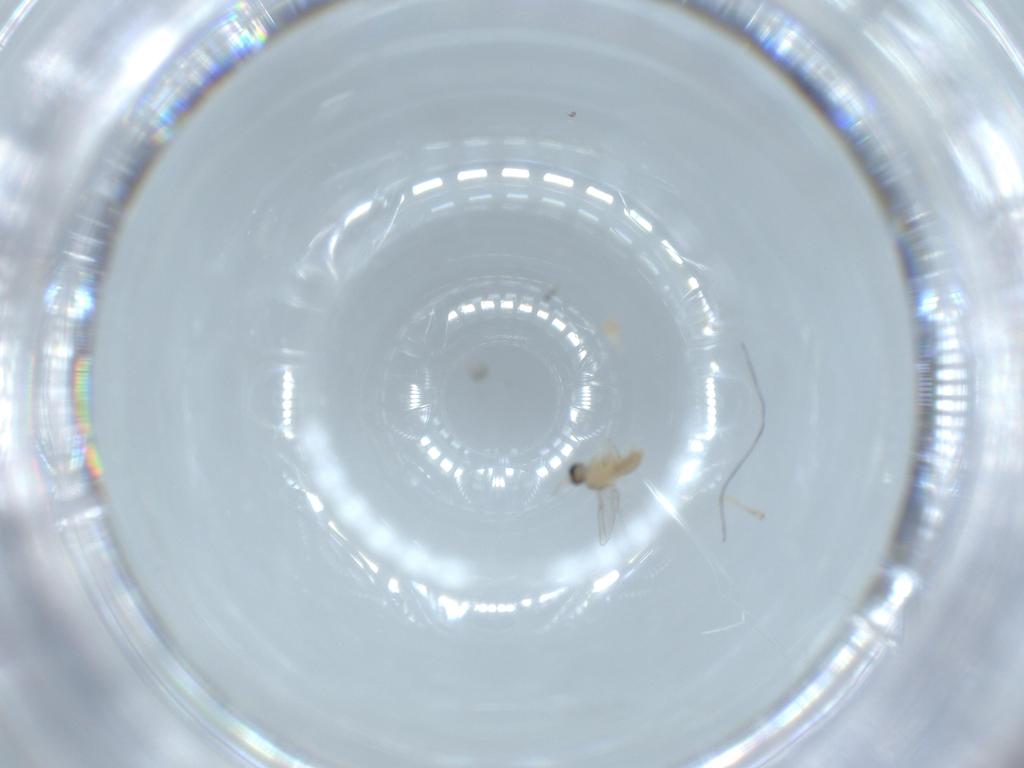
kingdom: Animalia
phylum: Arthropoda
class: Insecta
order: Diptera
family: Cecidomyiidae
